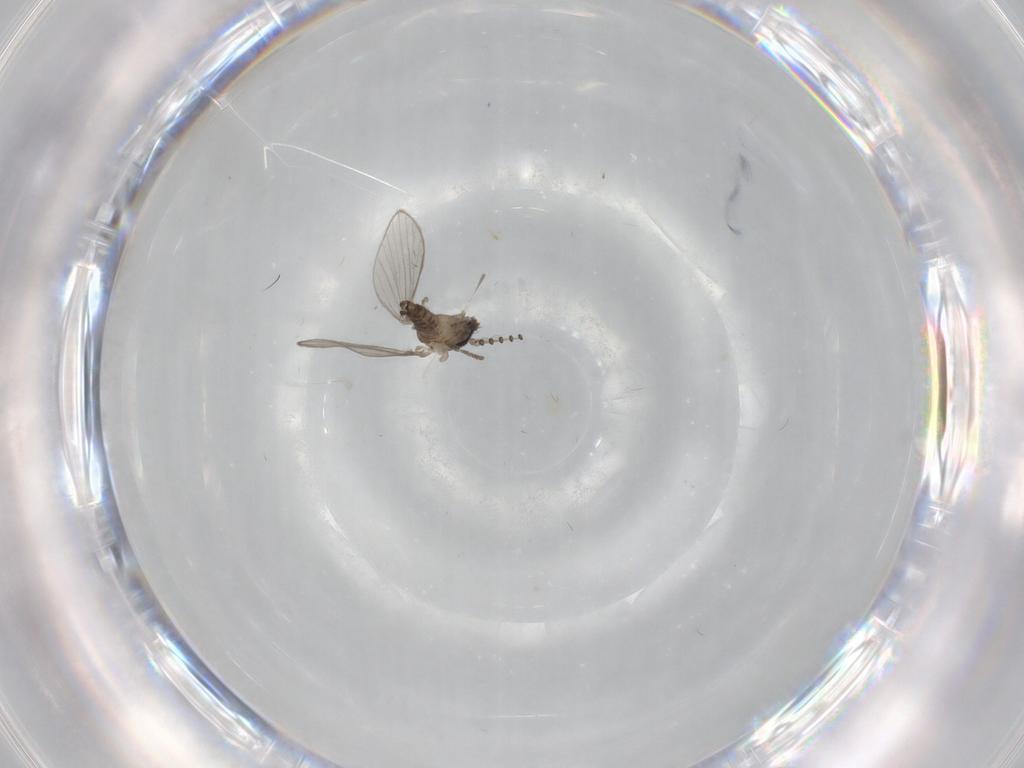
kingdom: Animalia
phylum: Arthropoda
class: Insecta
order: Diptera
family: Psychodidae
